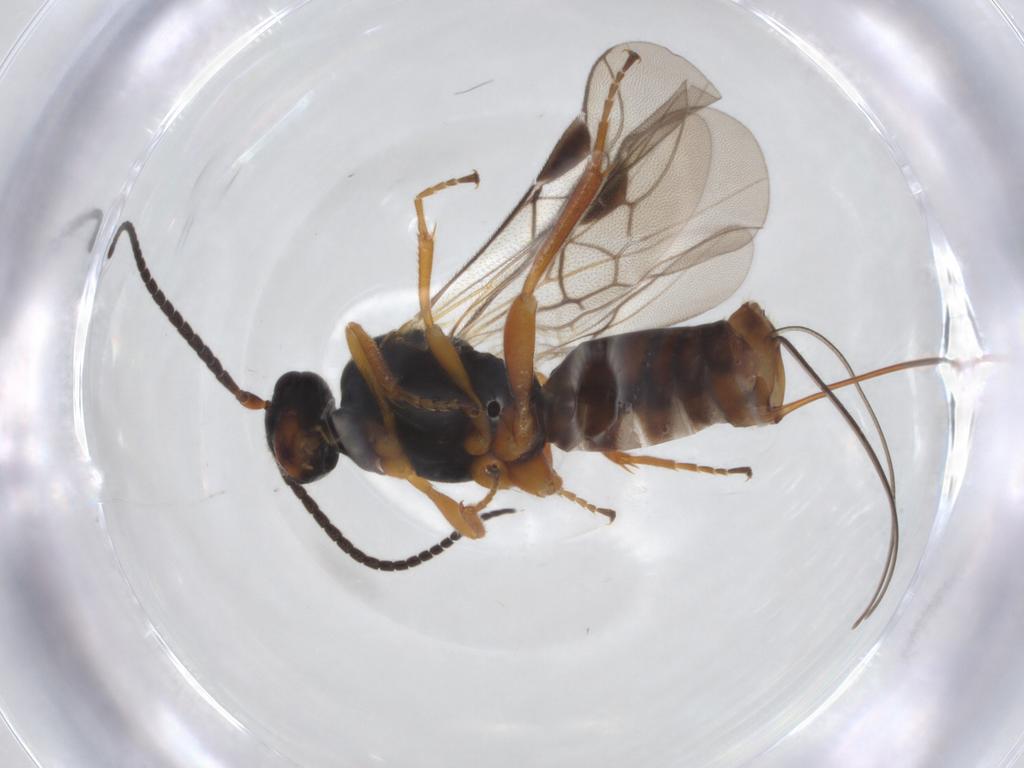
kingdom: Animalia
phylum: Arthropoda
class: Insecta
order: Hymenoptera
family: Braconidae
